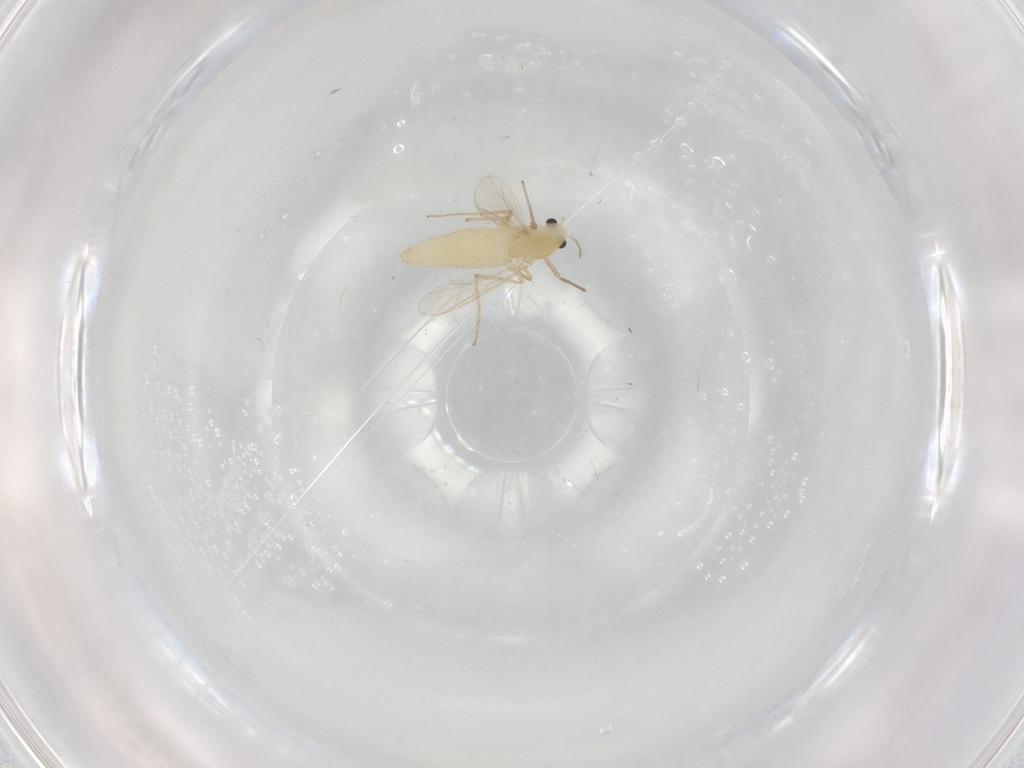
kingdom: Animalia
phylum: Arthropoda
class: Insecta
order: Diptera
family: Chironomidae
